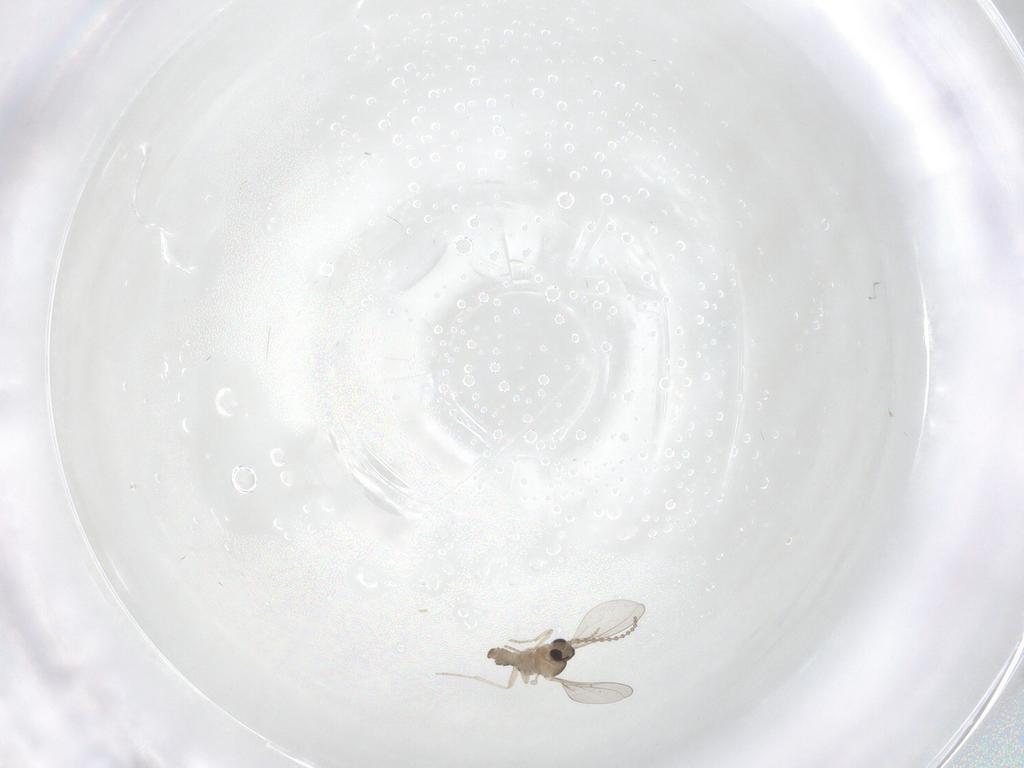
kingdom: Animalia
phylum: Arthropoda
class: Insecta
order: Diptera
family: Cecidomyiidae
